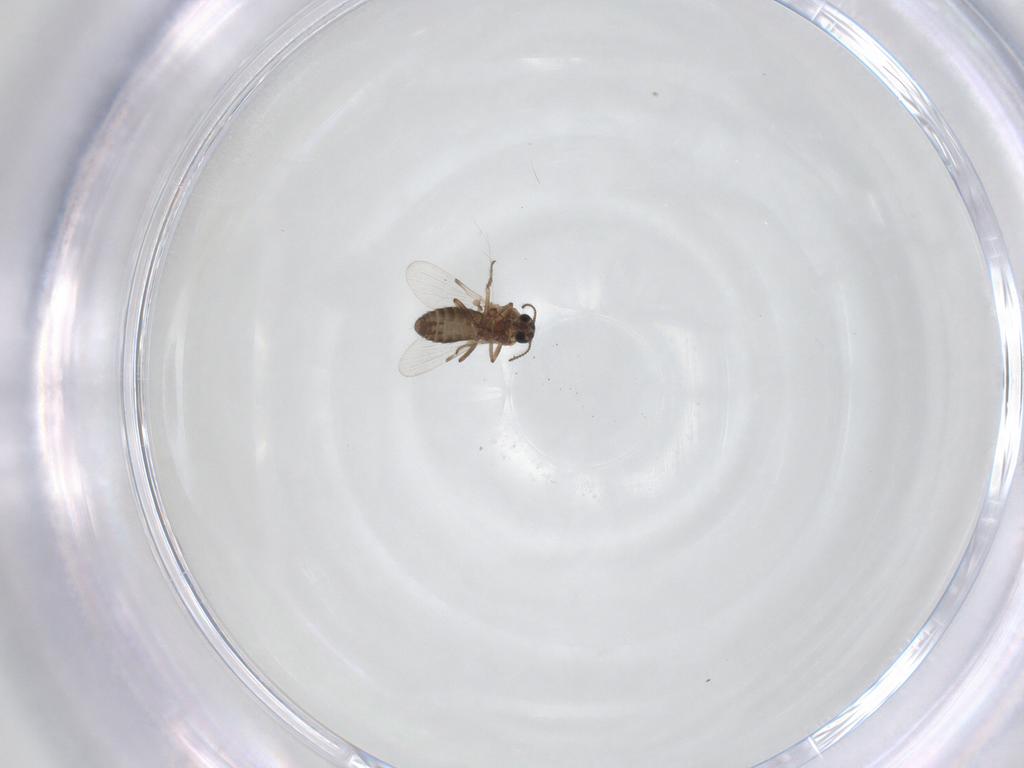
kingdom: Animalia
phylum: Arthropoda
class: Insecta
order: Diptera
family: Ceratopogonidae
